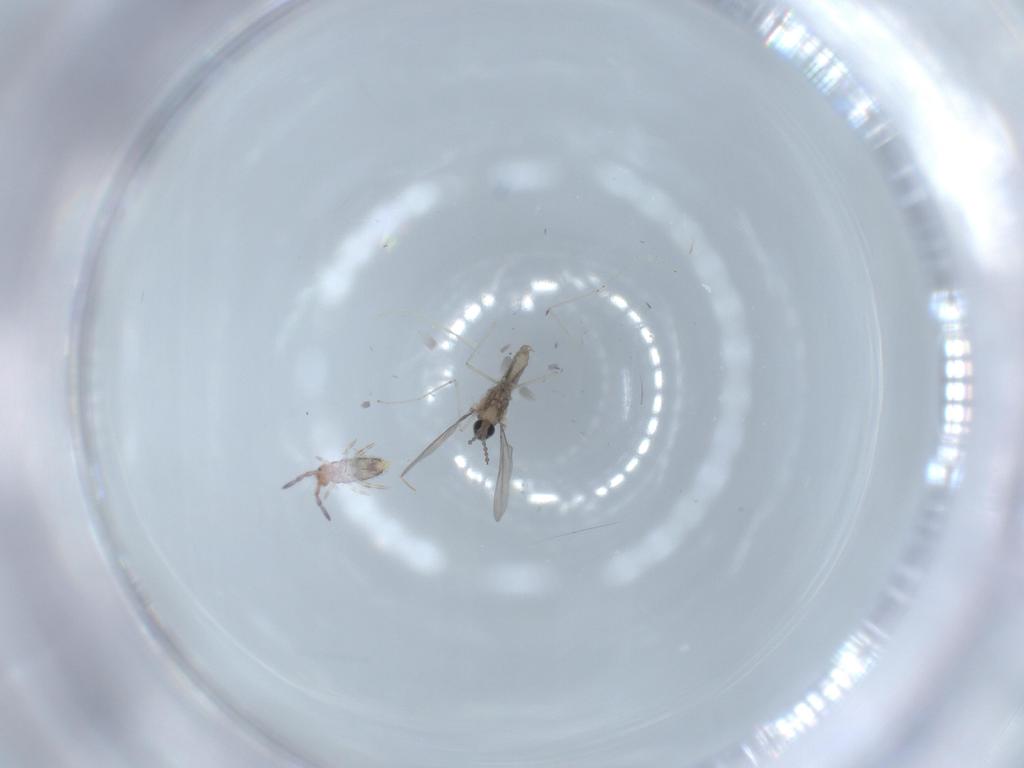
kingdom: Animalia
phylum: Arthropoda
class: Insecta
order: Diptera
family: Cecidomyiidae
